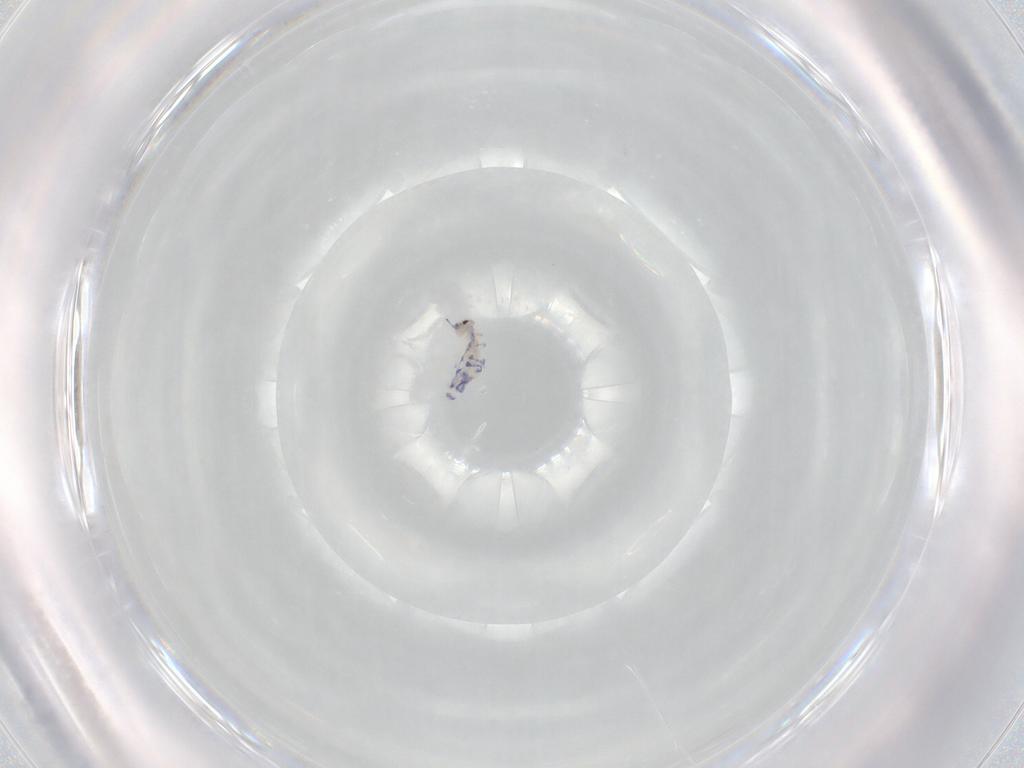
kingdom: Animalia
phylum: Arthropoda
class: Collembola
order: Entomobryomorpha
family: Entomobryidae
